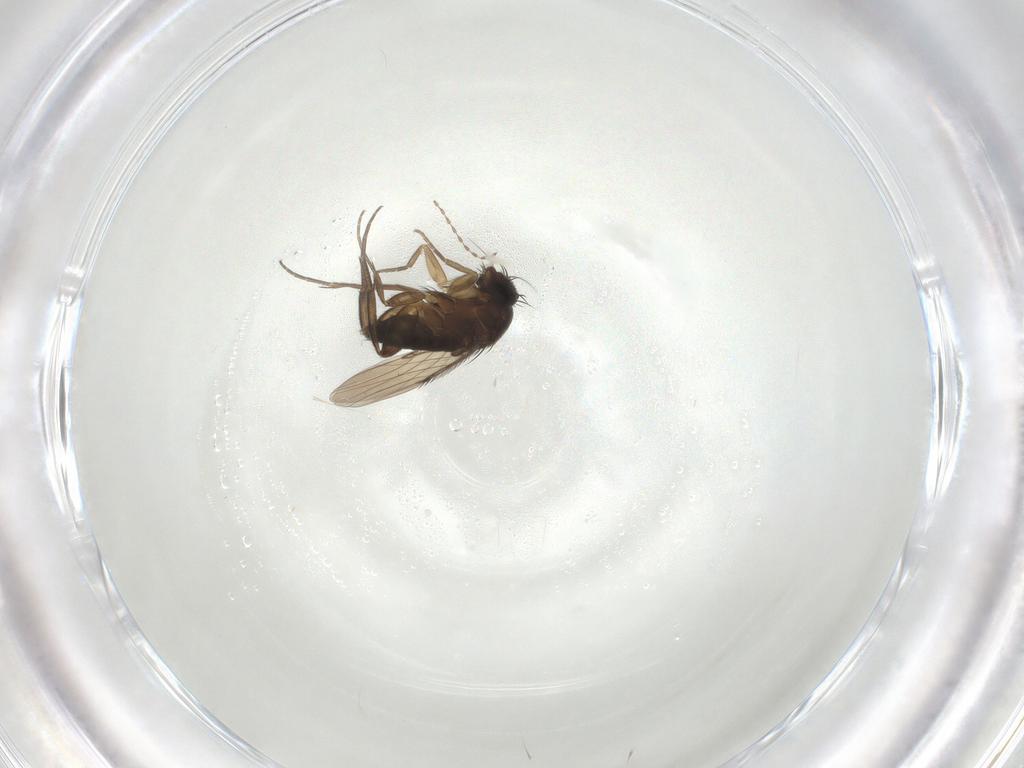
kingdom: Animalia
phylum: Arthropoda
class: Insecta
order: Diptera
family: Phoridae
